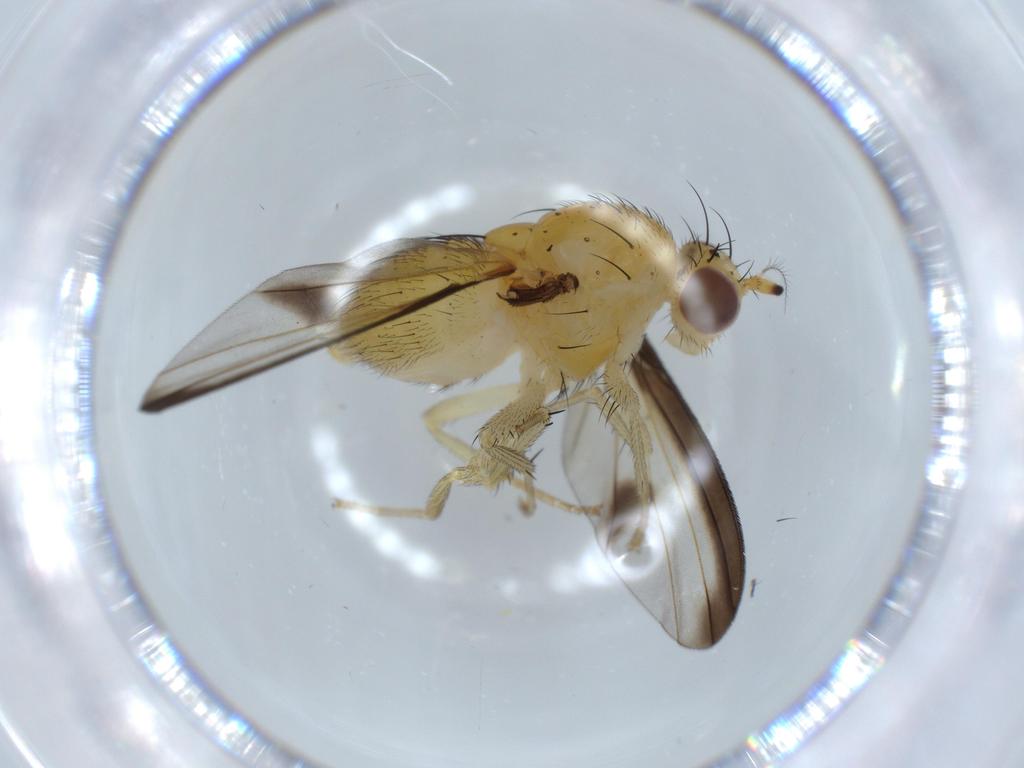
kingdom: Animalia
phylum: Arthropoda
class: Insecta
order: Diptera
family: Lauxaniidae
